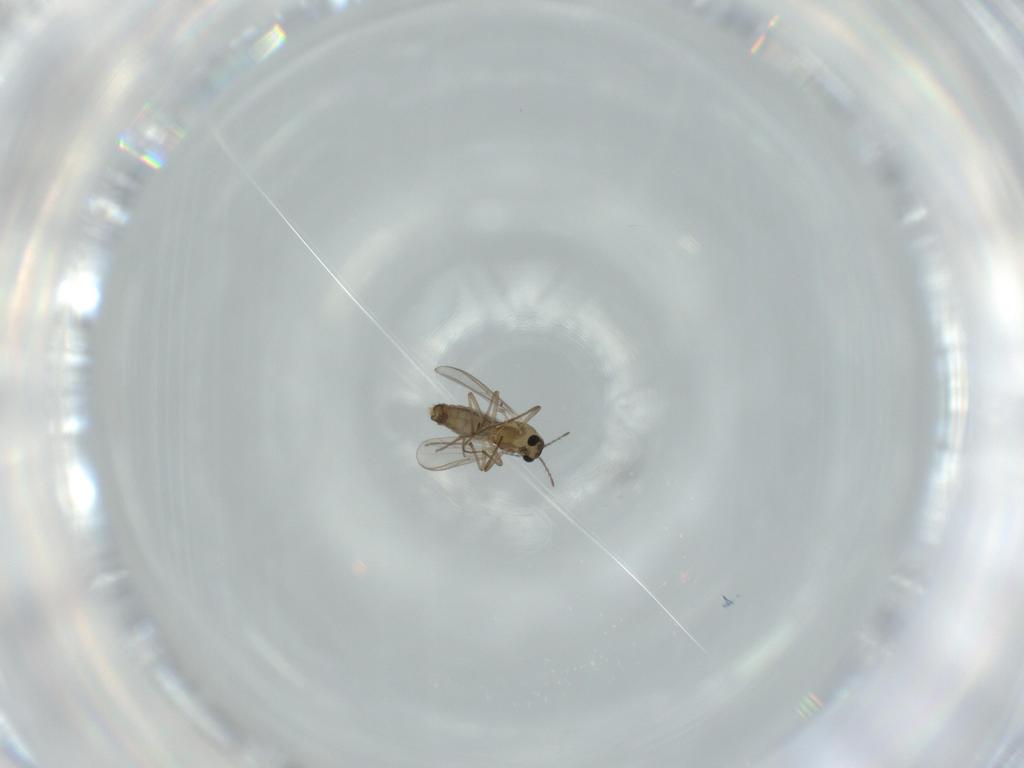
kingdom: Animalia
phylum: Arthropoda
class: Insecta
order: Diptera
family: Chironomidae
